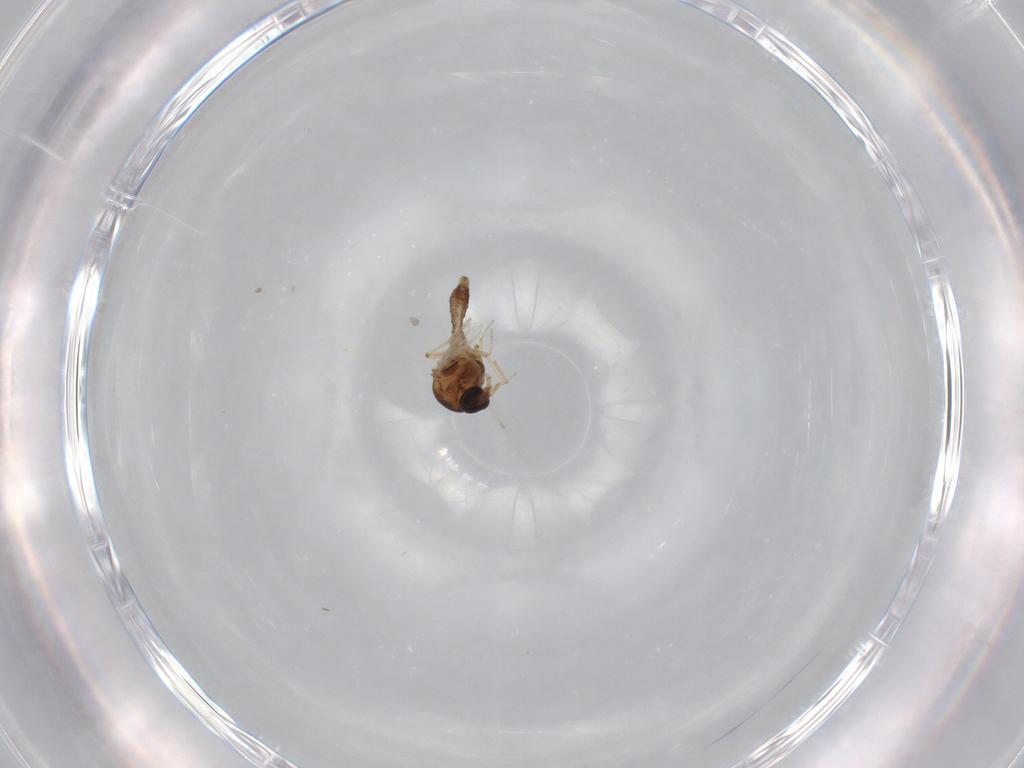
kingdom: Animalia
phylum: Arthropoda
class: Insecta
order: Diptera
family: Ceratopogonidae
